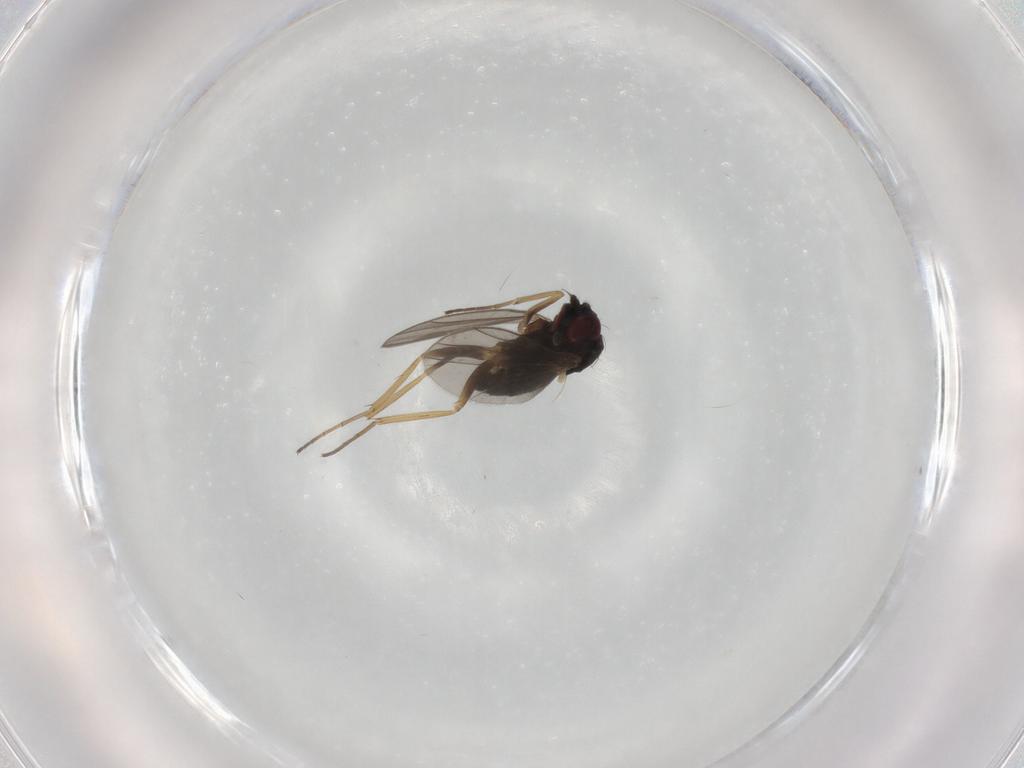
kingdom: Animalia
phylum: Arthropoda
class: Insecta
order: Diptera
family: Dolichopodidae
